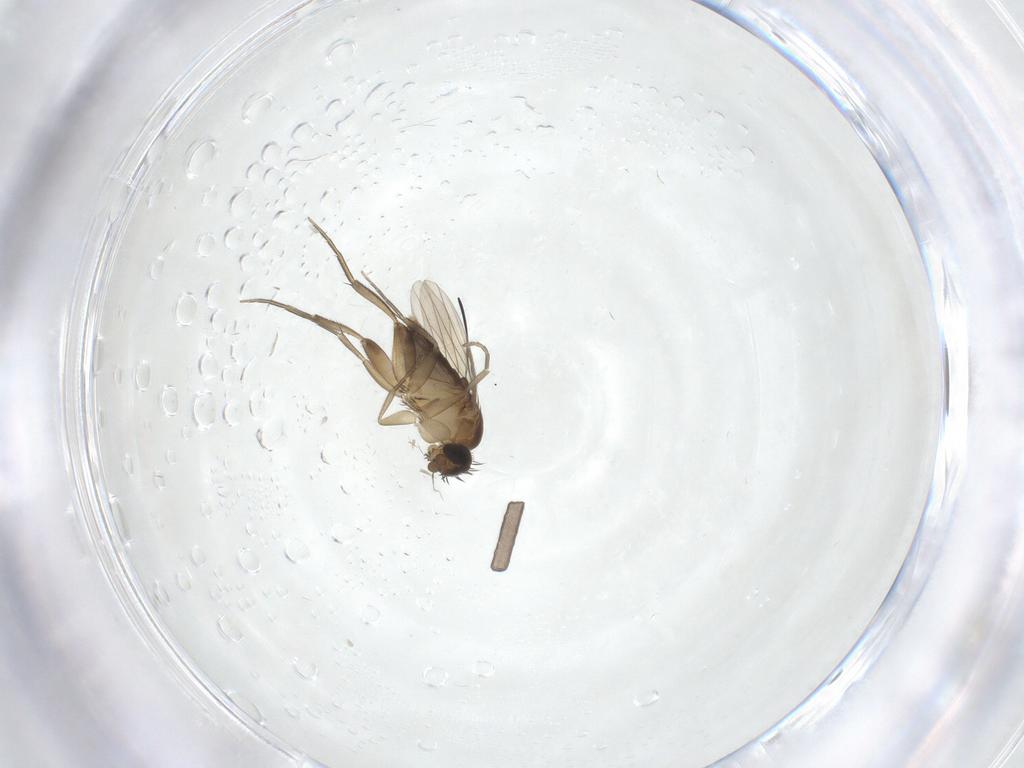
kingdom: Animalia
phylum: Arthropoda
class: Insecta
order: Diptera
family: Phoridae
